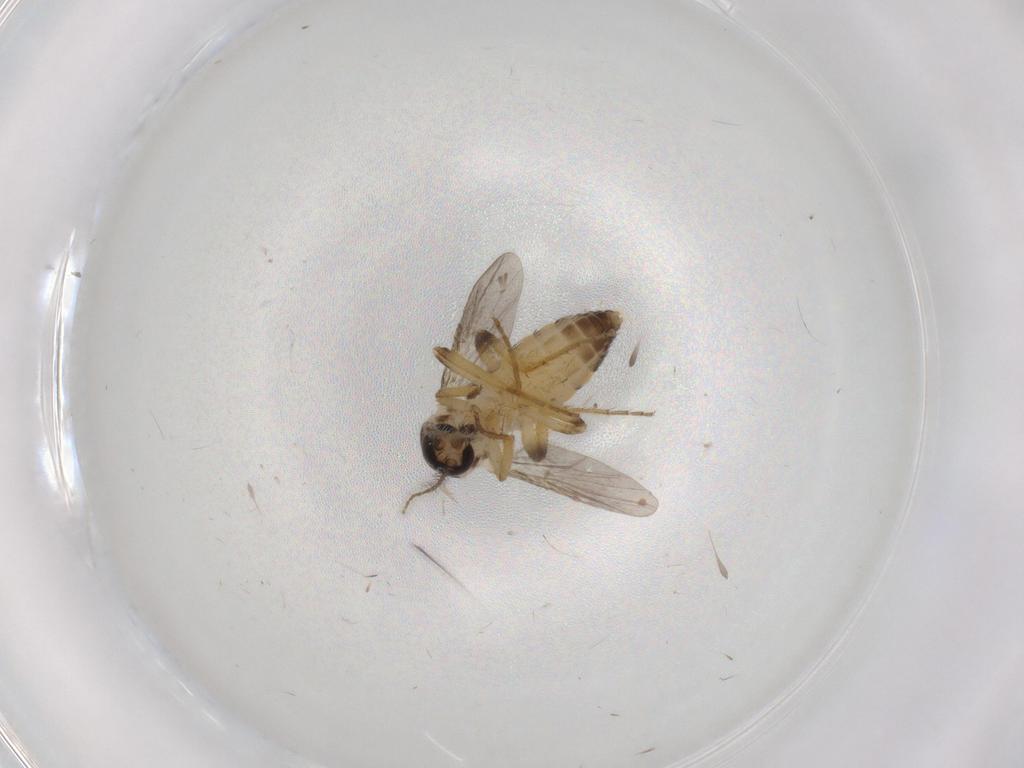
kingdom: Animalia
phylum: Arthropoda
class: Insecta
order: Diptera
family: Ceratopogonidae
